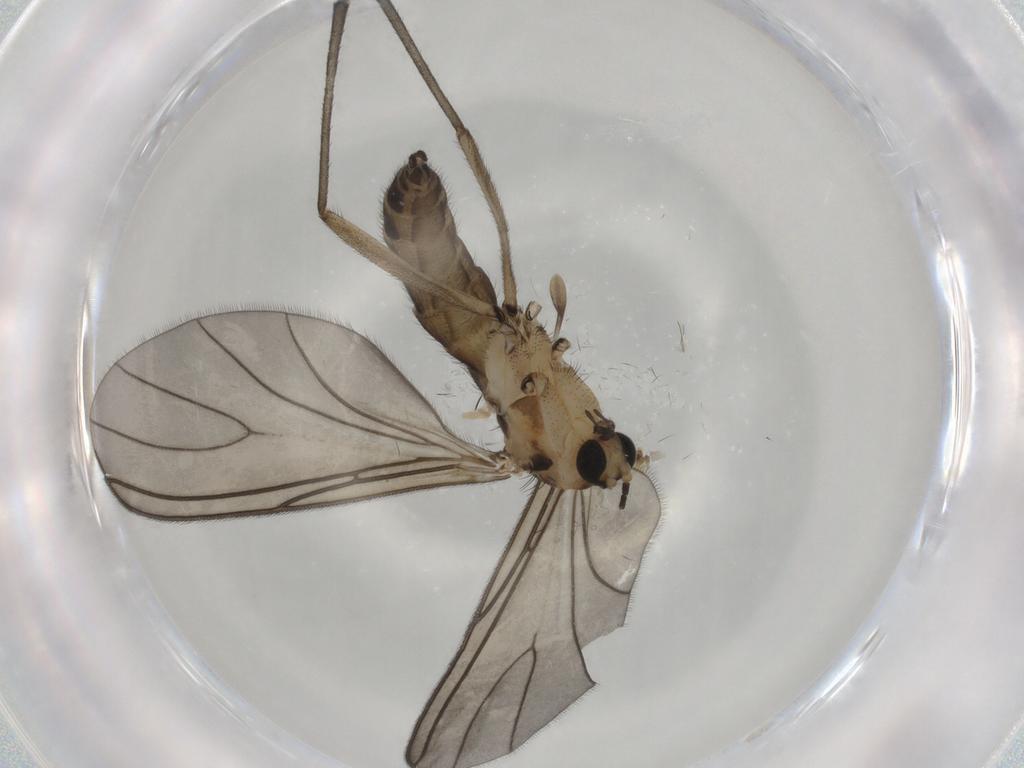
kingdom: Animalia
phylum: Arthropoda
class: Insecta
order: Diptera
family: Sciaridae
